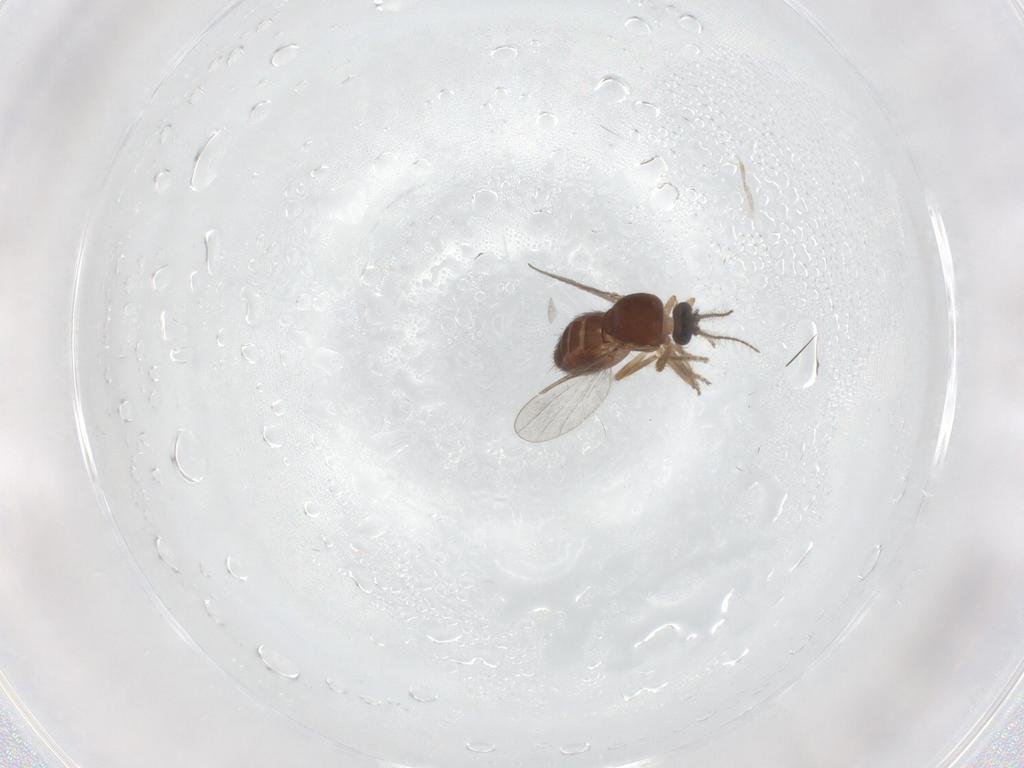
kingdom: Animalia
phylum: Arthropoda
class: Insecta
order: Diptera
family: Ceratopogonidae
